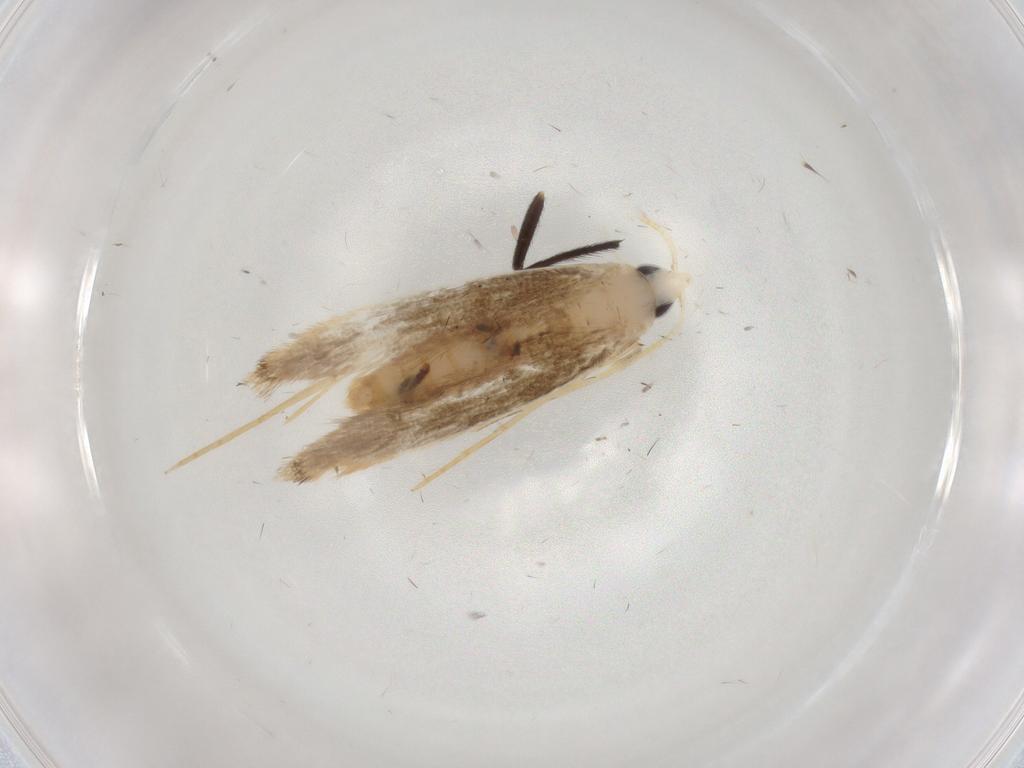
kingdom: Animalia
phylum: Arthropoda
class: Insecta
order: Lepidoptera
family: Lyonetiidae
